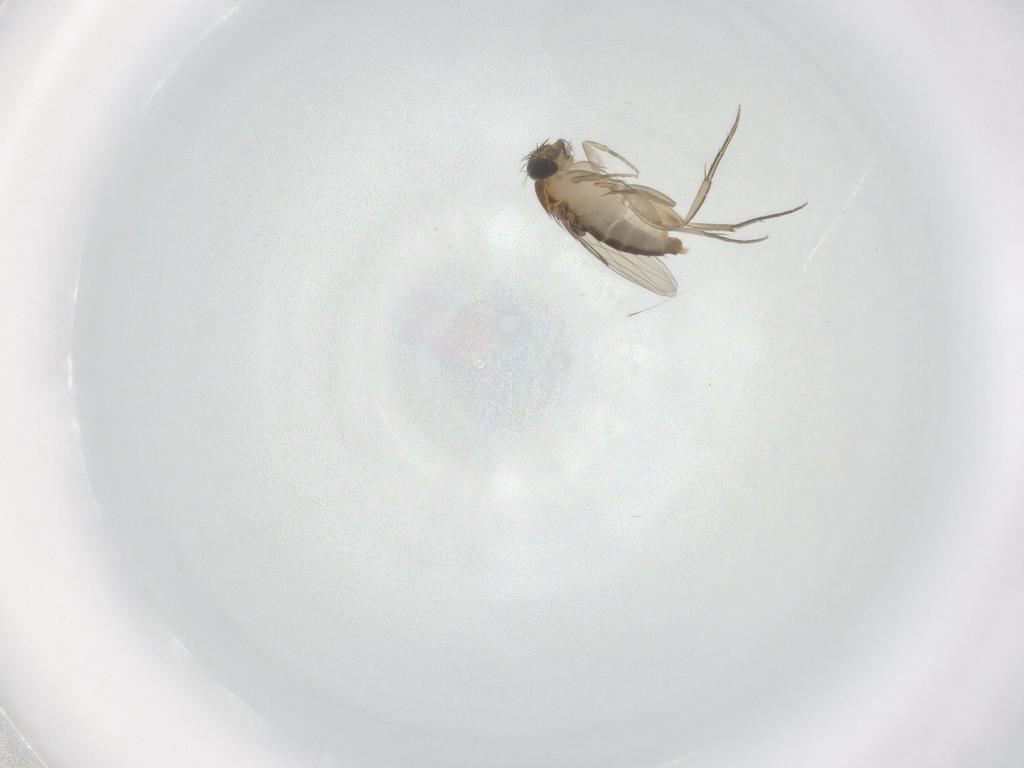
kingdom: Animalia
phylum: Arthropoda
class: Insecta
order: Diptera
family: Phoridae
